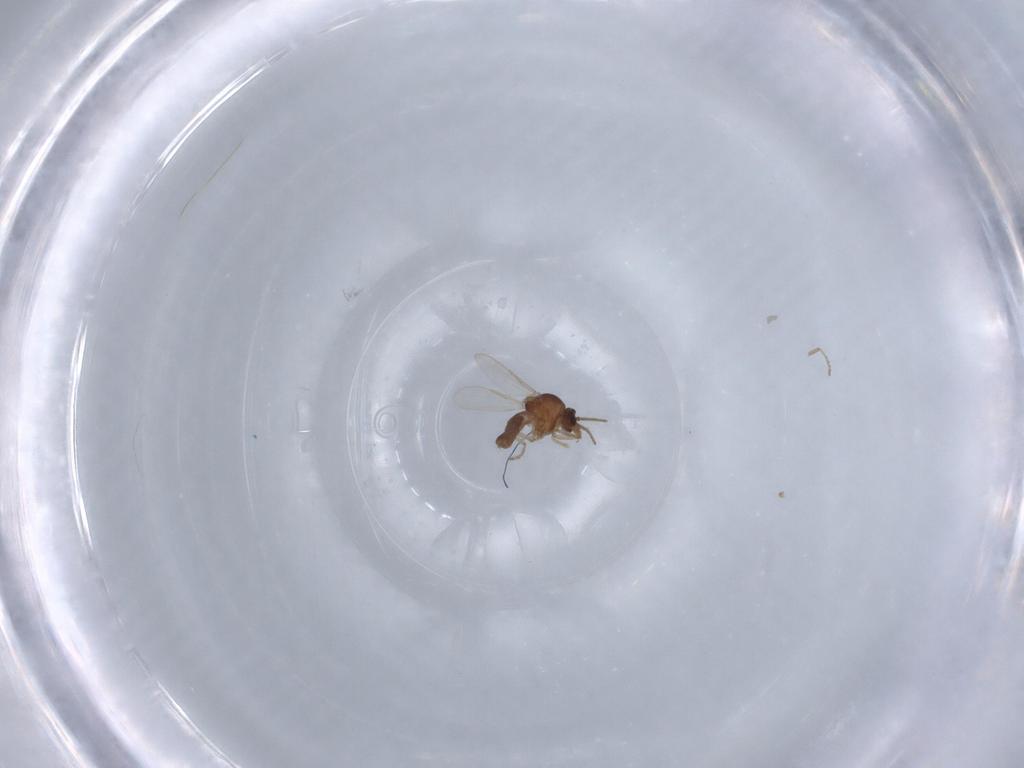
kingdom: Animalia
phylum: Arthropoda
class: Insecta
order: Diptera
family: Ceratopogonidae
